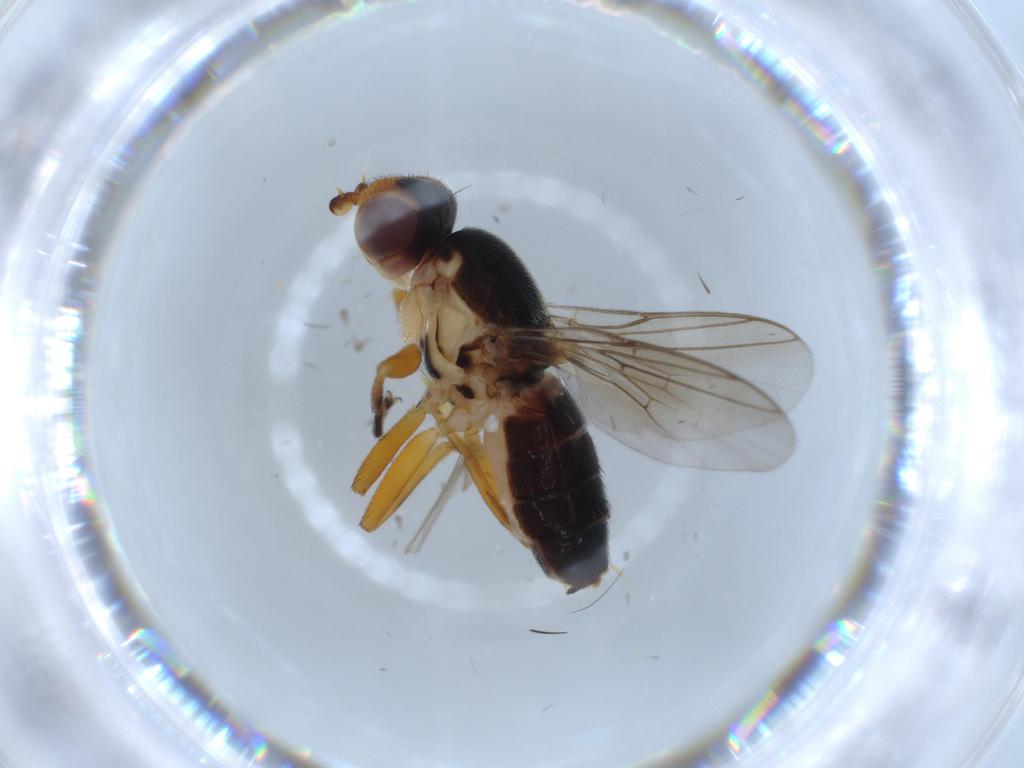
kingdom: Animalia
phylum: Arthropoda
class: Insecta
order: Diptera
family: Chloropidae
